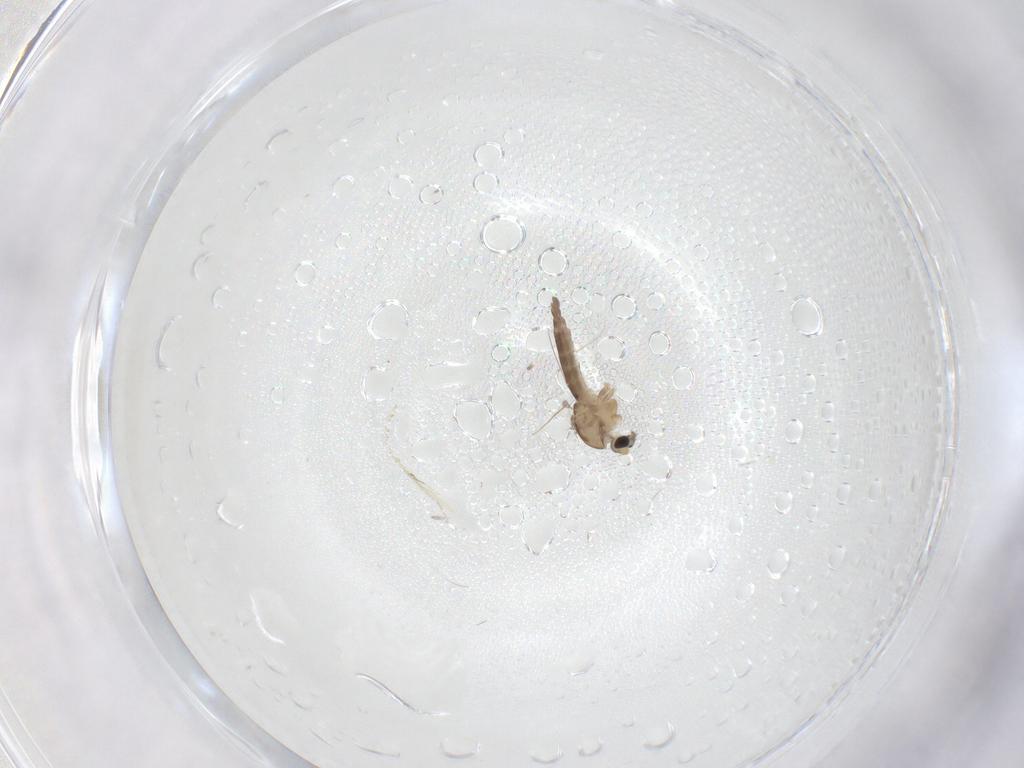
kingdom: Animalia
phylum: Arthropoda
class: Insecta
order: Diptera
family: Chironomidae
